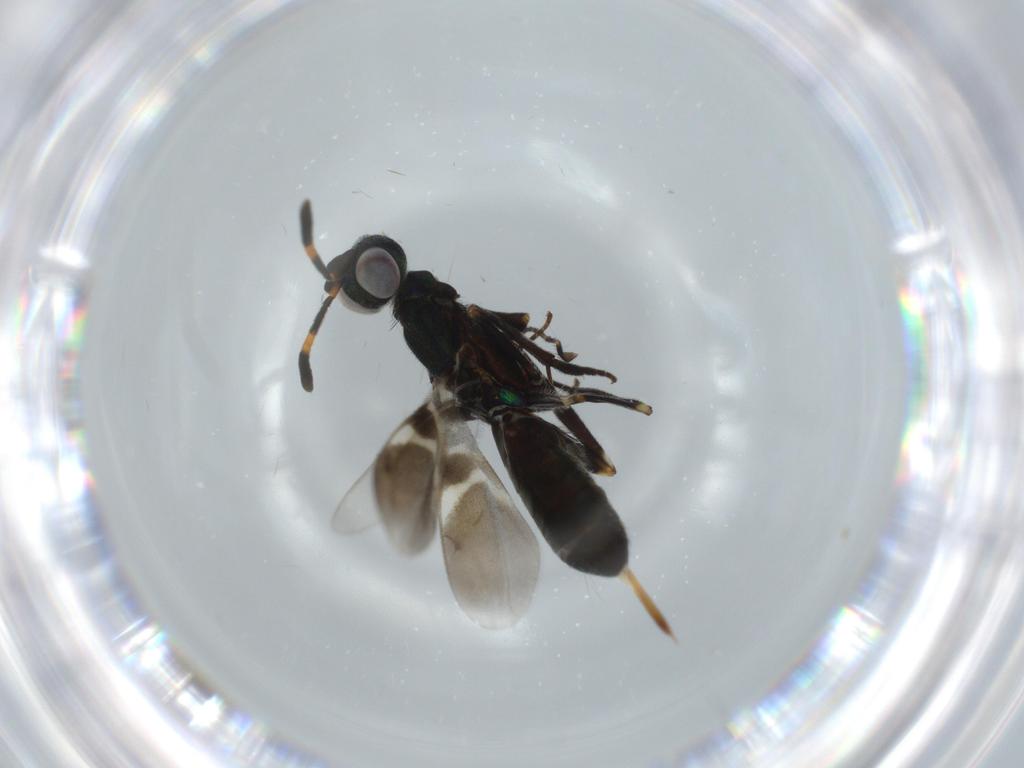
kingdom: Animalia
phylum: Arthropoda
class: Insecta
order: Hymenoptera
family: Eupelmidae
